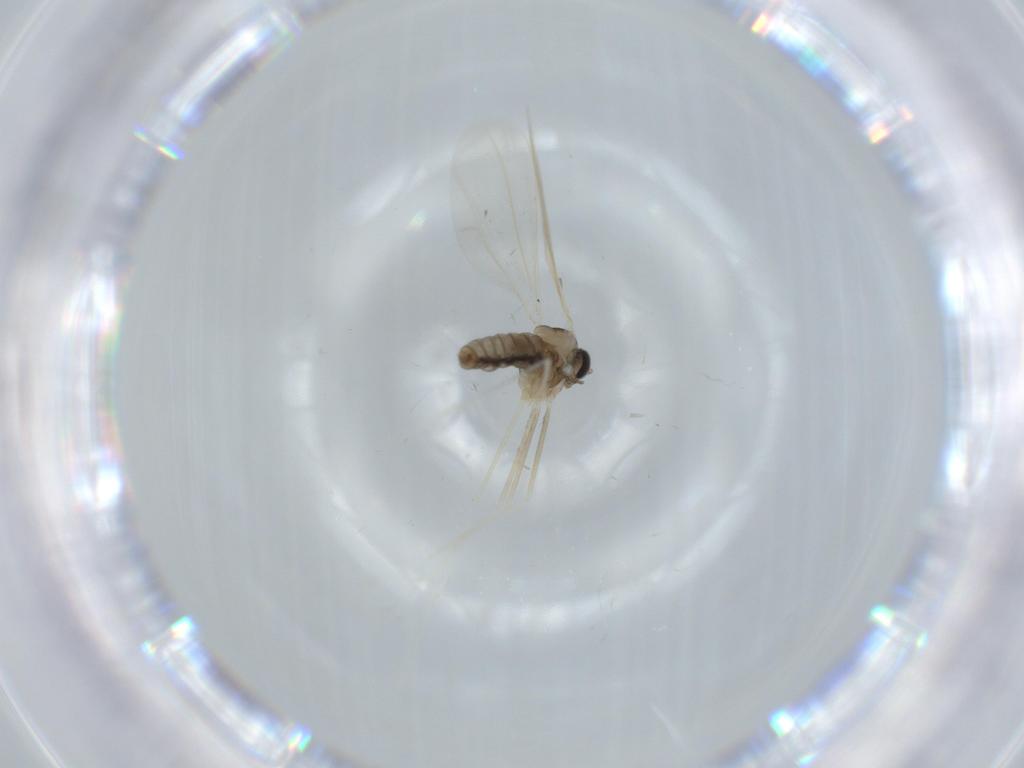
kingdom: Animalia
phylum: Arthropoda
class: Insecta
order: Diptera
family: Cecidomyiidae
